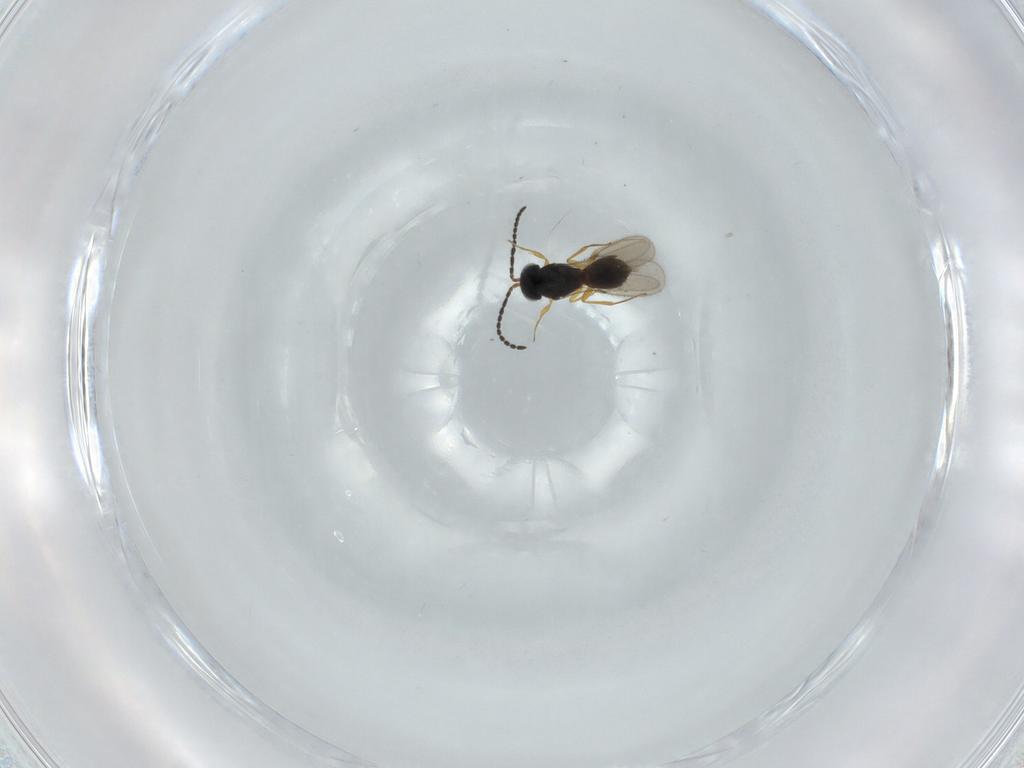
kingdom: Animalia
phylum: Arthropoda
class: Insecta
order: Hymenoptera
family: Scelionidae
